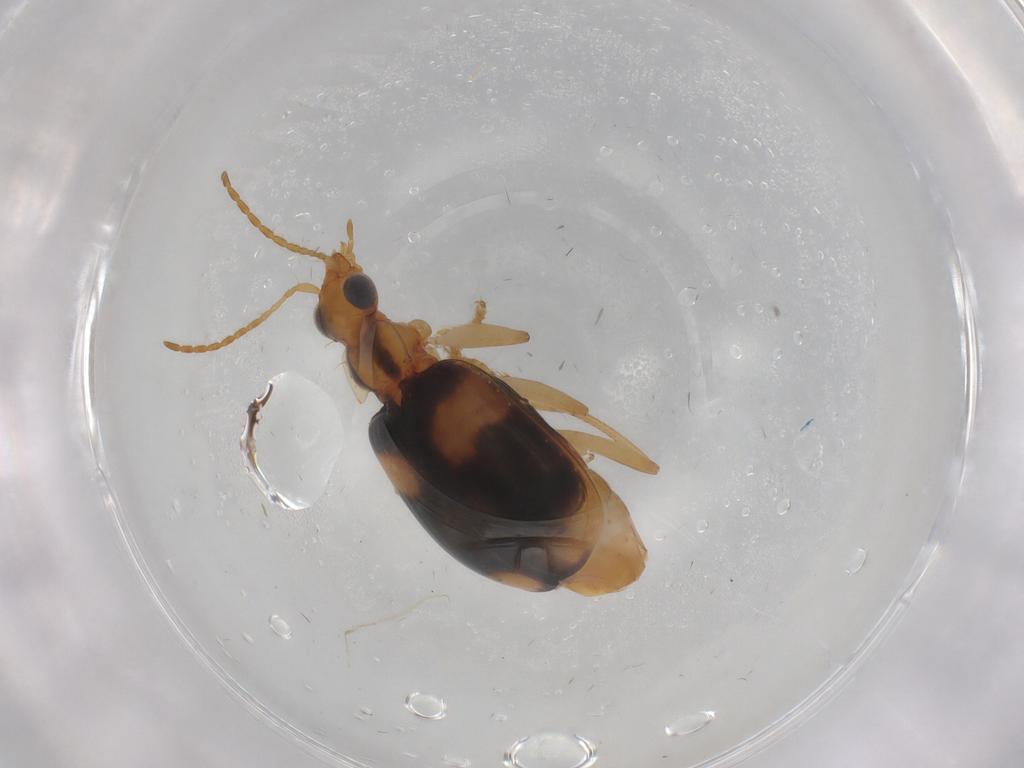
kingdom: Animalia
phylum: Arthropoda
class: Insecta
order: Coleoptera
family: Carabidae
